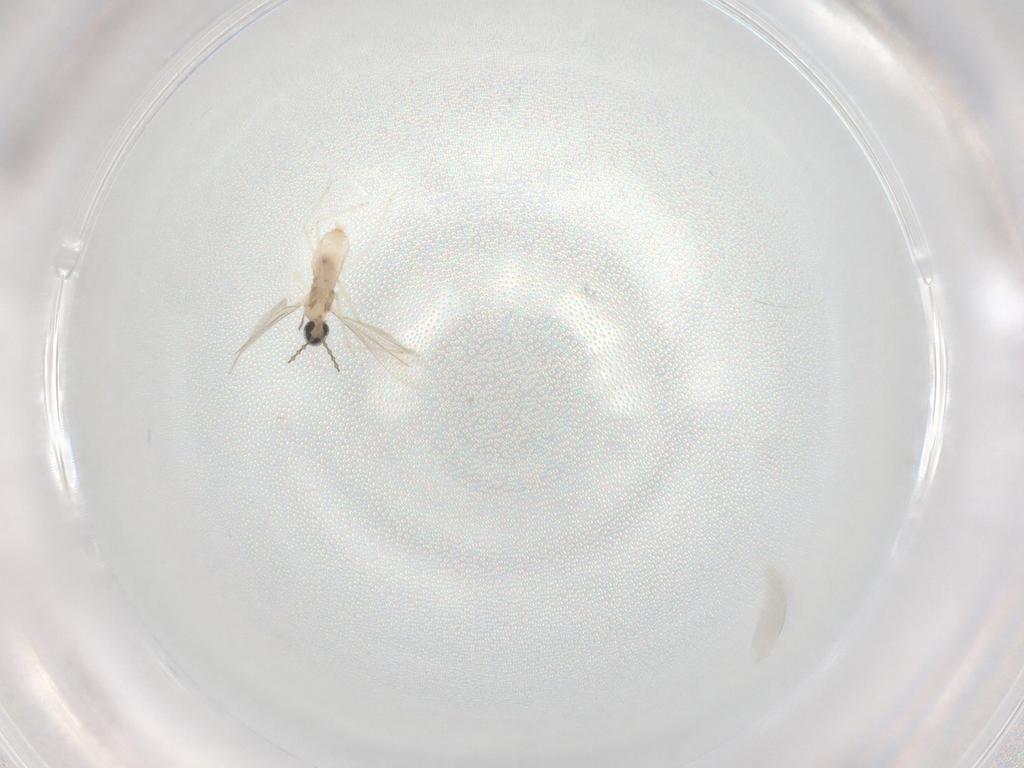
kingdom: Animalia
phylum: Arthropoda
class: Insecta
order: Diptera
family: Cecidomyiidae
